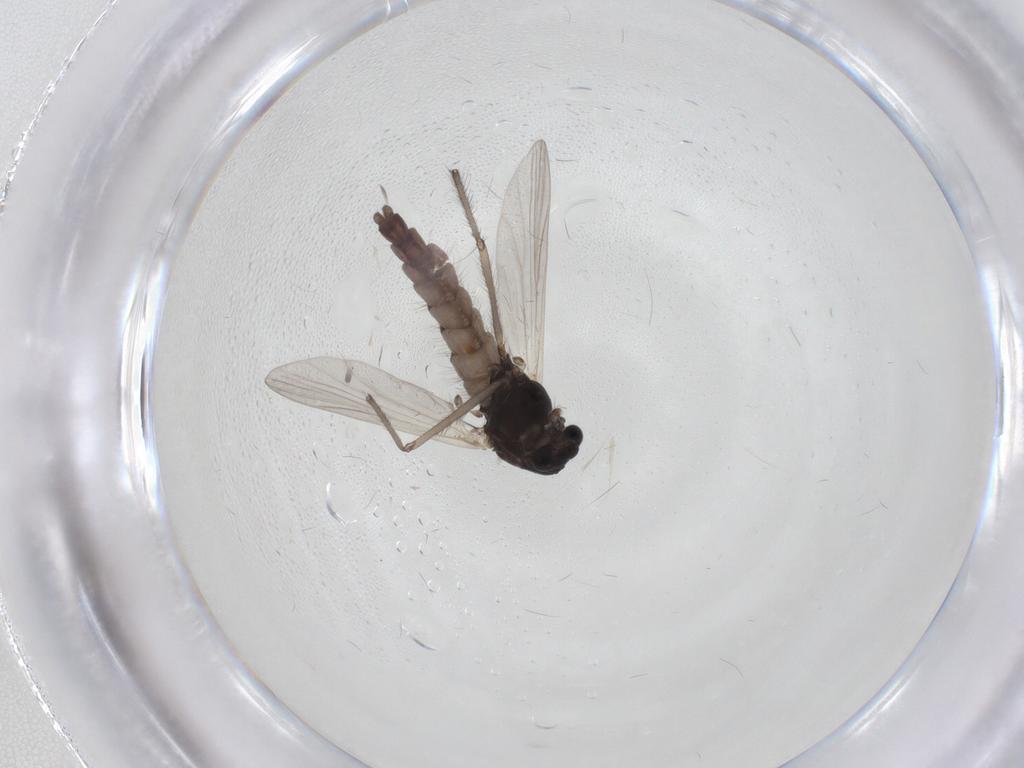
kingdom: Animalia
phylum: Arthropoda
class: Insecta
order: Diptera
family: Chironomidae
